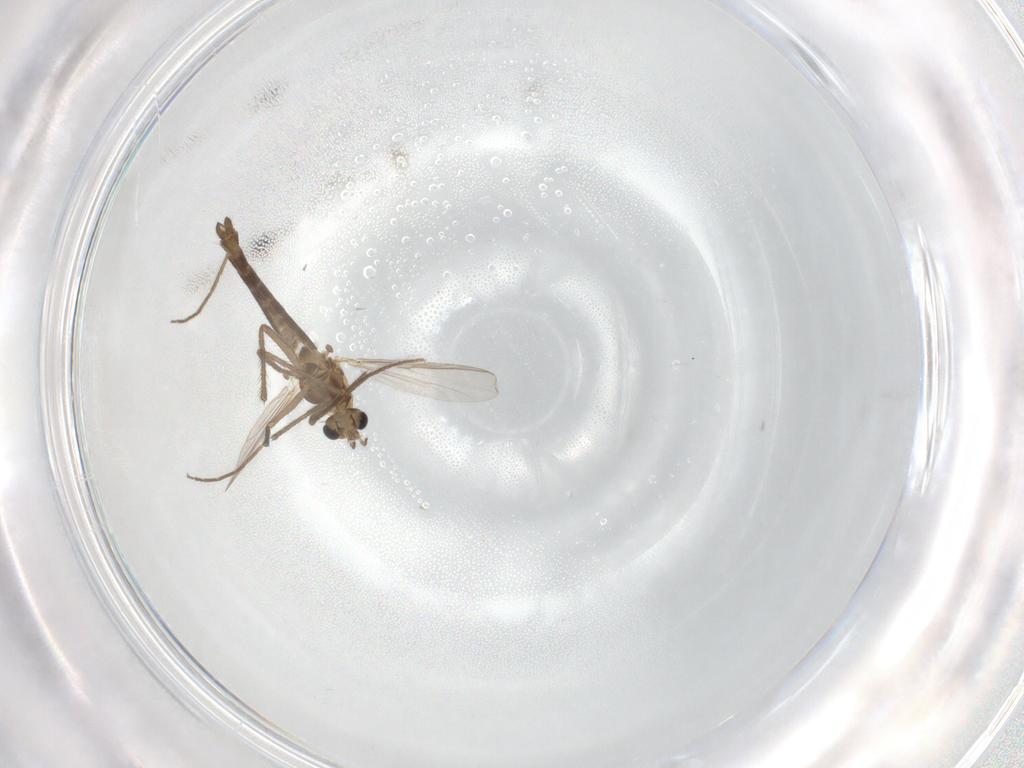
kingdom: Animalia
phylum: Arthropoda
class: Insecta
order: Diptera
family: Chironomidae
